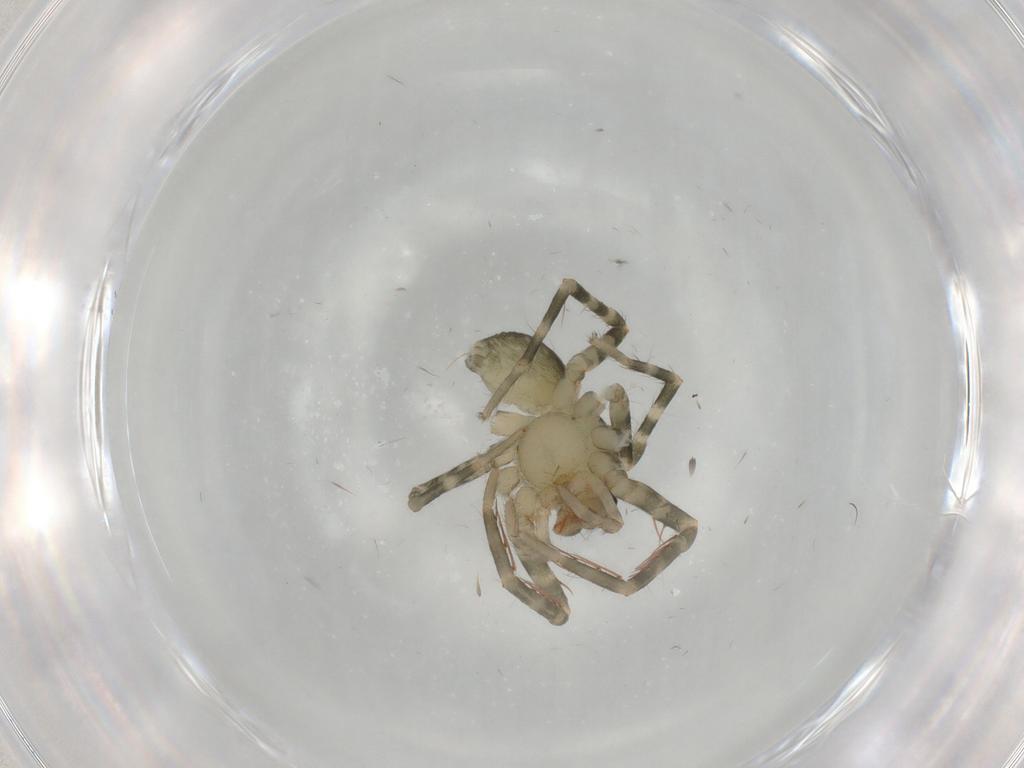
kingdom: Animalia
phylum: Arthropoda
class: Arachnida
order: Araneae
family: Ctenidae
